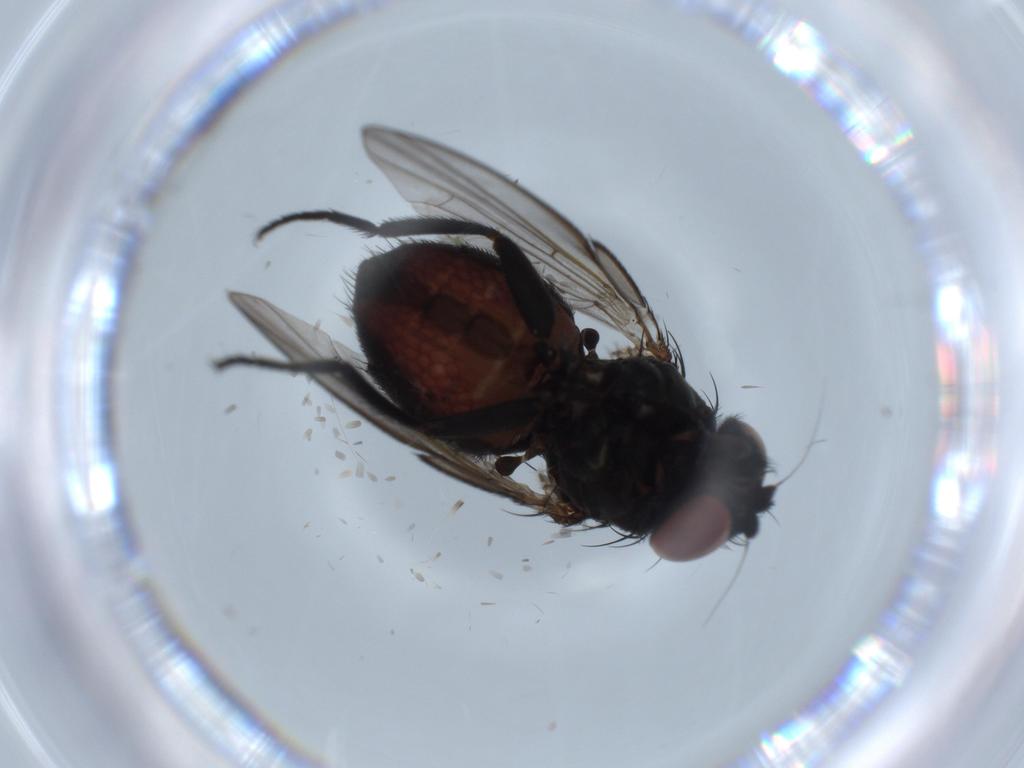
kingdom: Animalia
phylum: Arthropoda
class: Insecta
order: Diptera
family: Milichiidae
